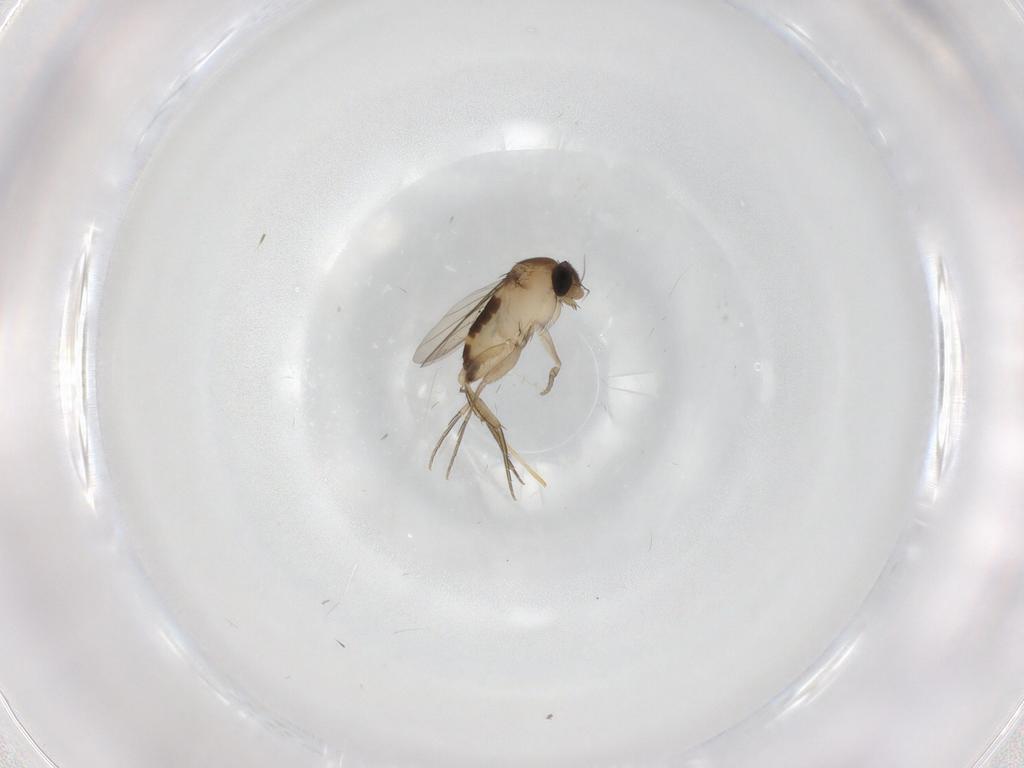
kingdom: Animalia
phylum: Arthropoda
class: Insecta
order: Diptera
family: Chironomidae
